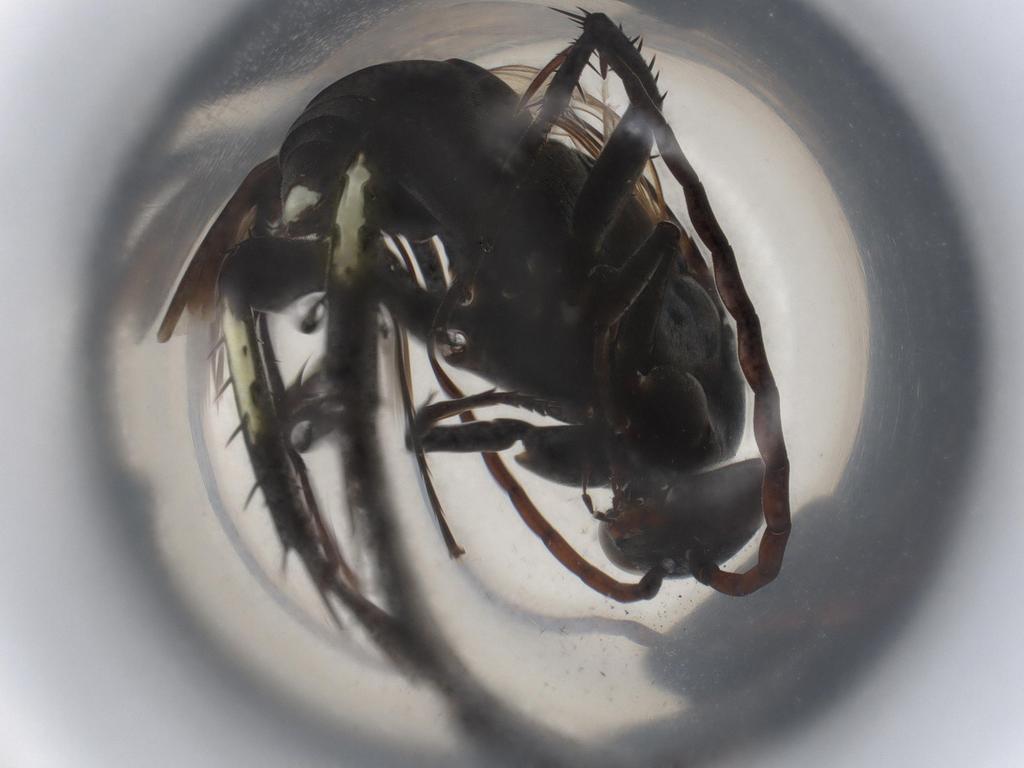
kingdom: Animalia
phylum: Arthropoda
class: Insecta
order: Hymenoptera
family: Pompilidae
